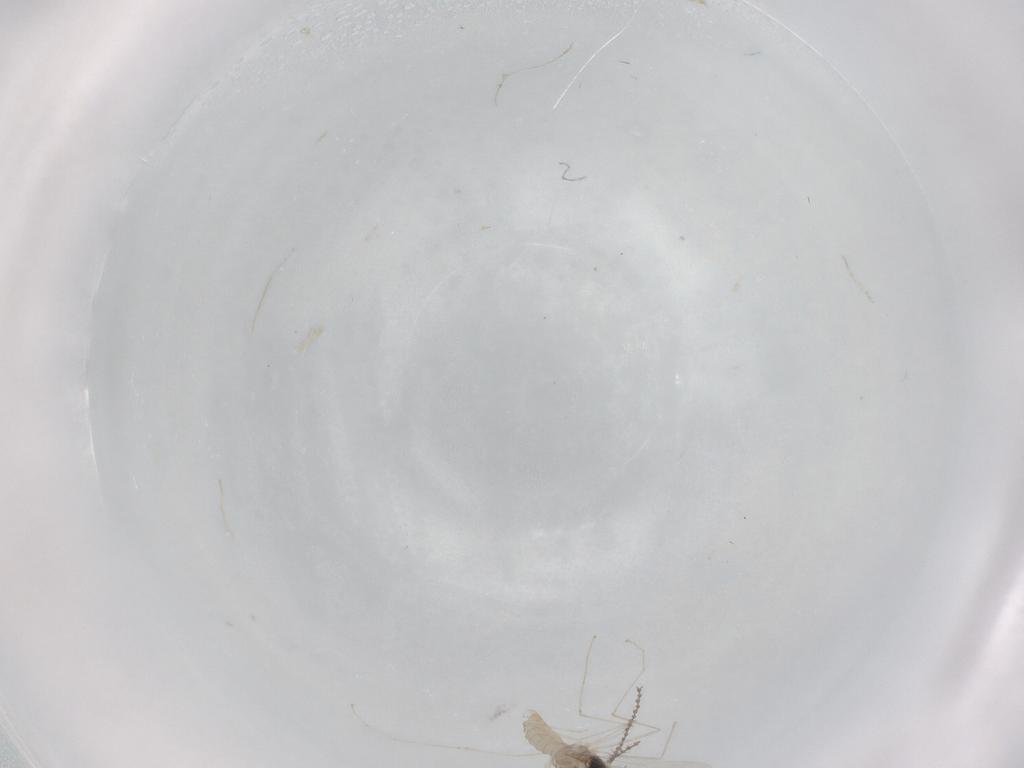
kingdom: Animalia
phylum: Arthropoda
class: Insecta
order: Diptera
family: Cecidomyiidae
